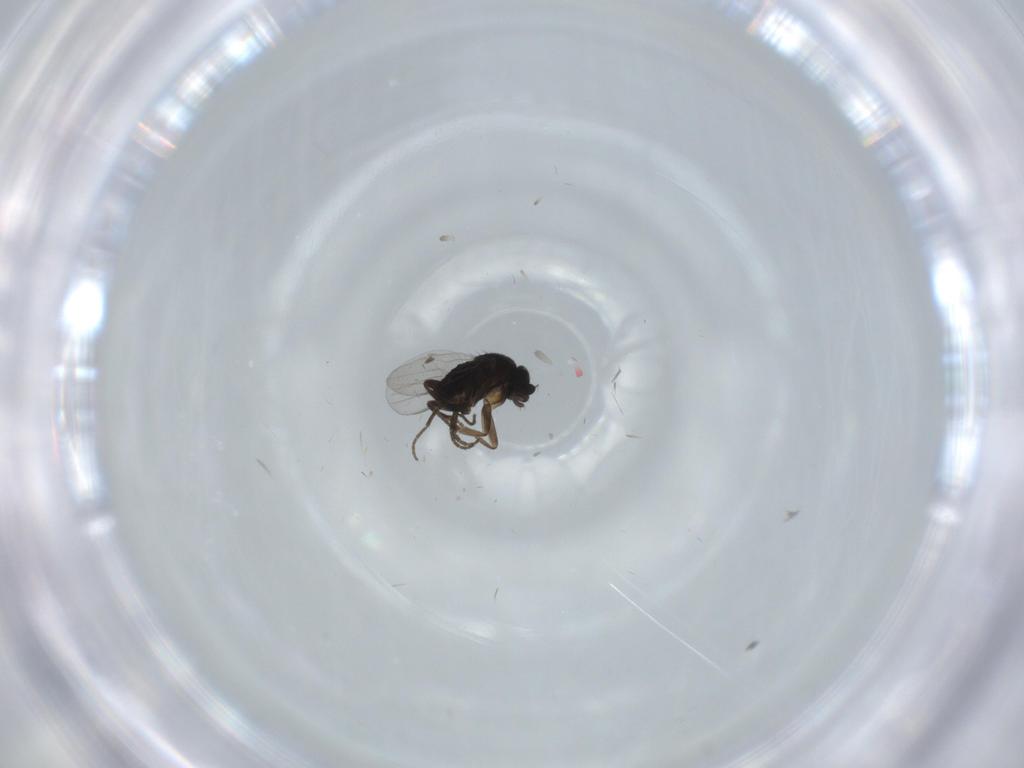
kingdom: Animalia
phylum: Arthropoda
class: Insecta
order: Diptera
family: Phoridae
